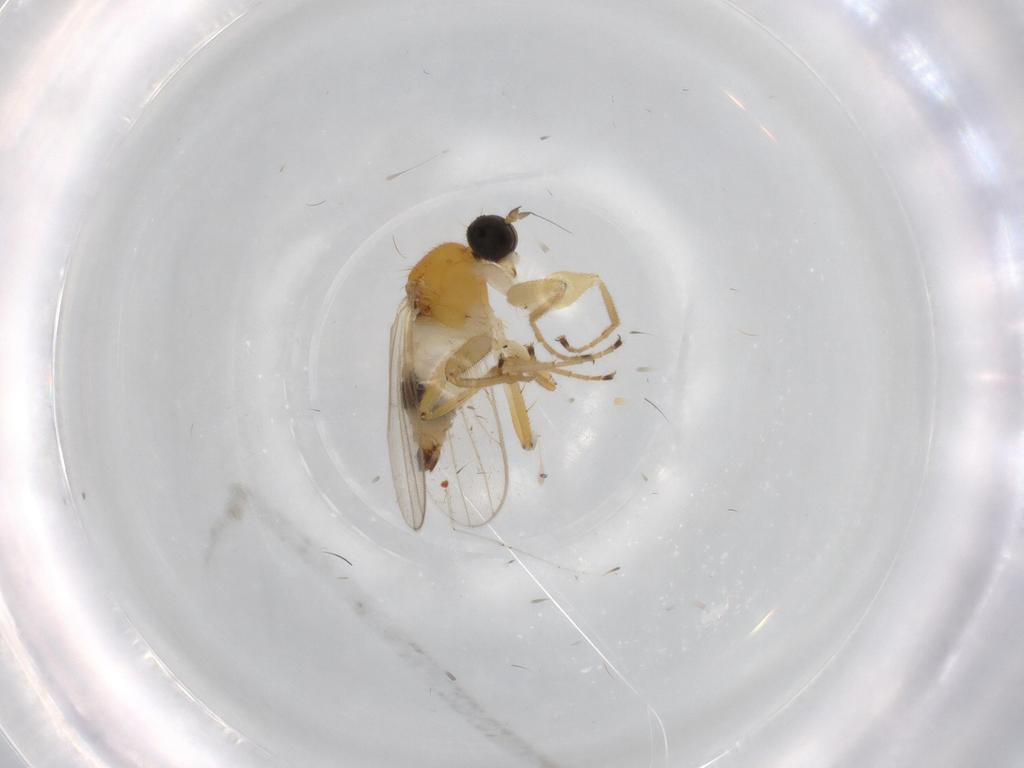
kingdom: Animalia
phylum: Arthropoda
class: Insecta
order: Diptera
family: Hybotidae
